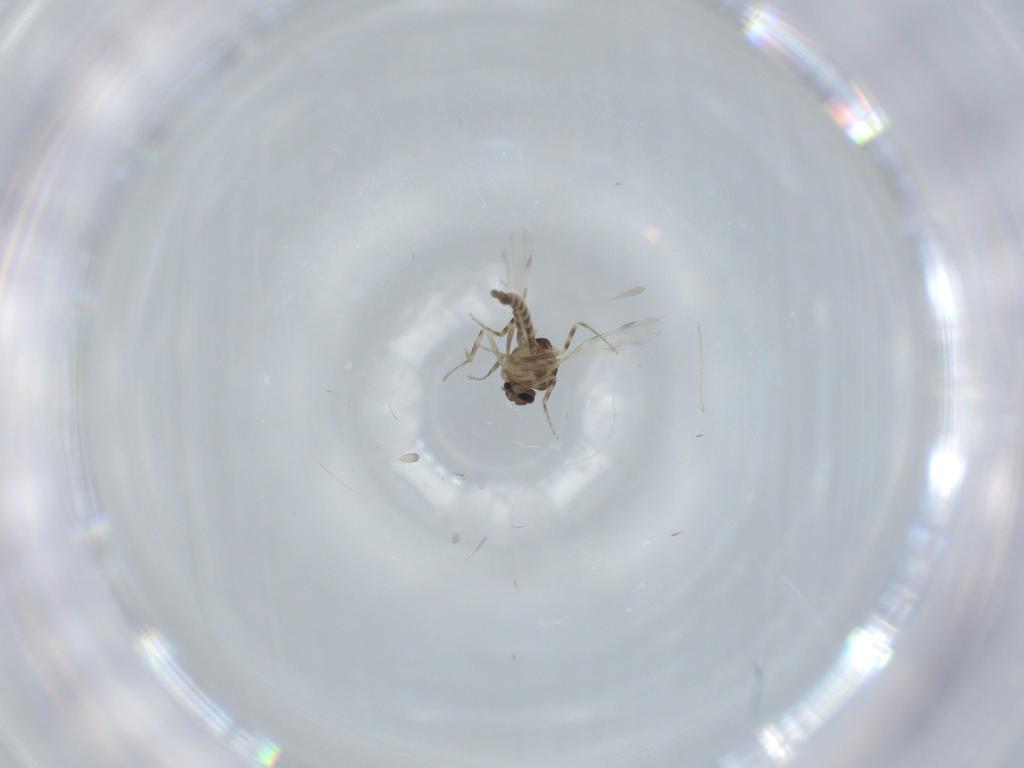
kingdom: Animalia
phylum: Arthropoda
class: Insecta
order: Diptera
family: Ceratopogonidae
